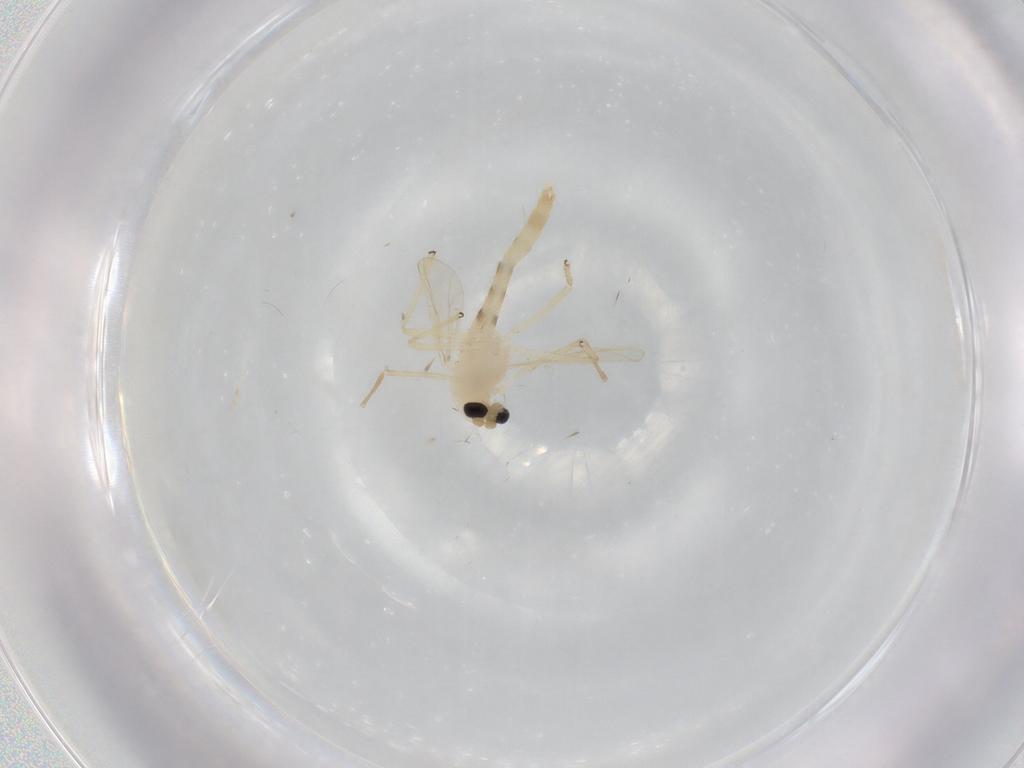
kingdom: Animalia
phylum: Arthropoda
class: Insecta
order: Diptera
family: Chironomidae
